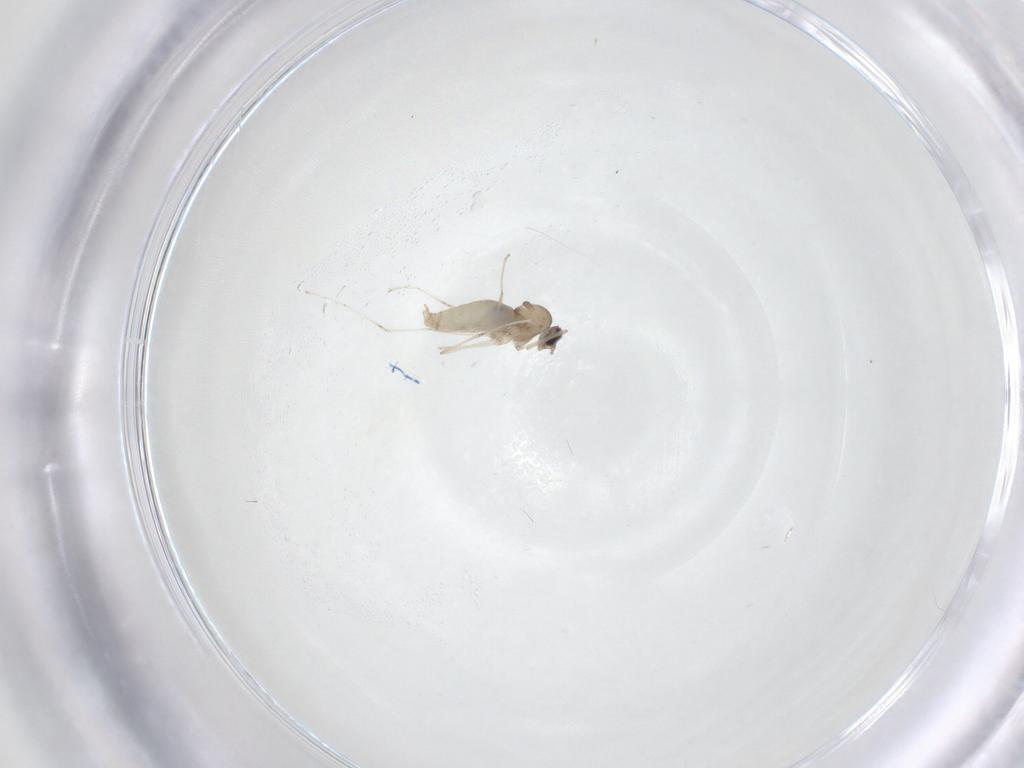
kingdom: Animalia
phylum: Arthropoda
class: Insecta
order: Diptera
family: Cecidomyiidae
